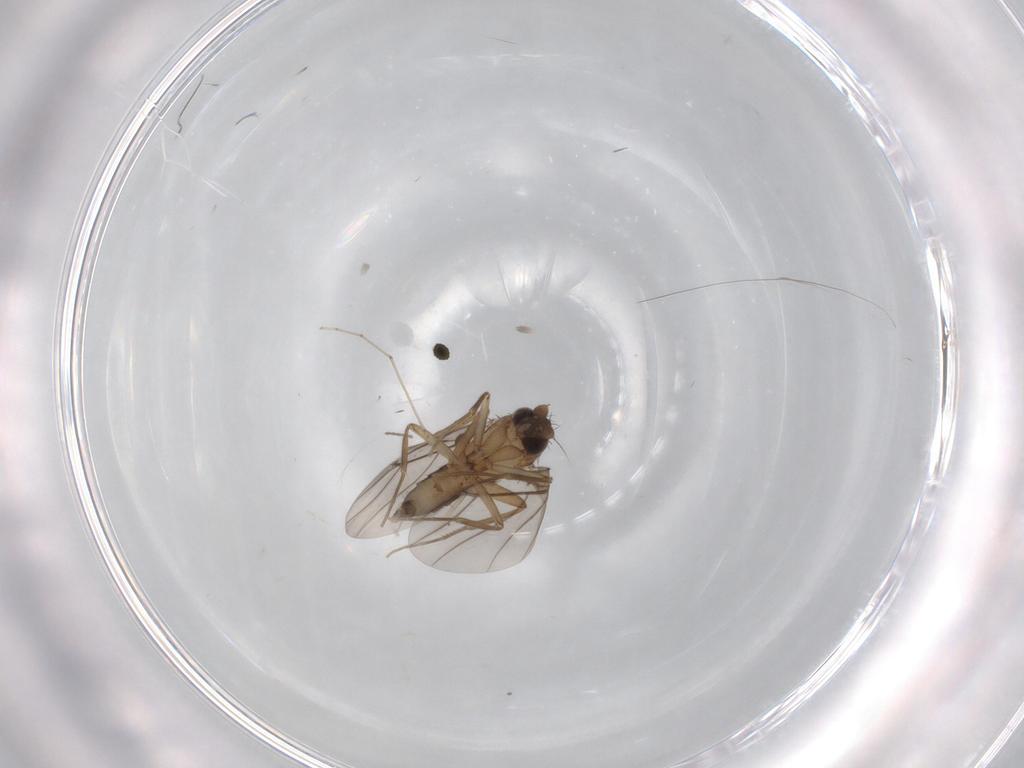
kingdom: Animalia
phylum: Arthropoda
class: Insecta
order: Diptera
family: Phoridae
